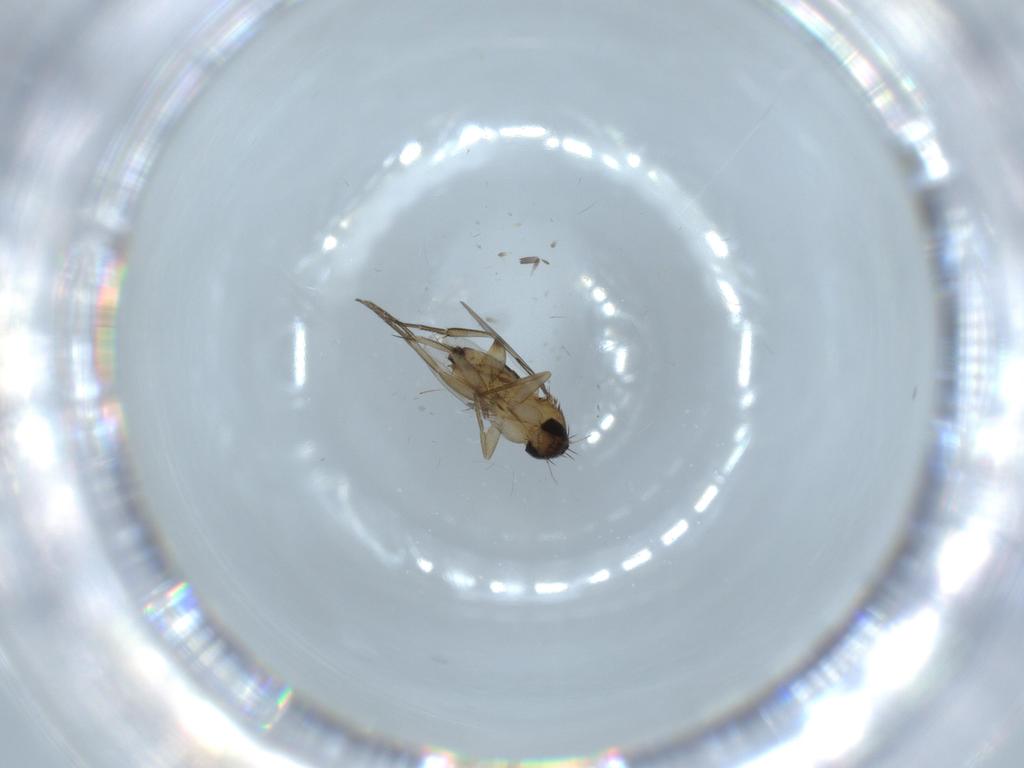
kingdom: Animalia
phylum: Arthropoda
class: Insecta
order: Diptera
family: Phoridae
